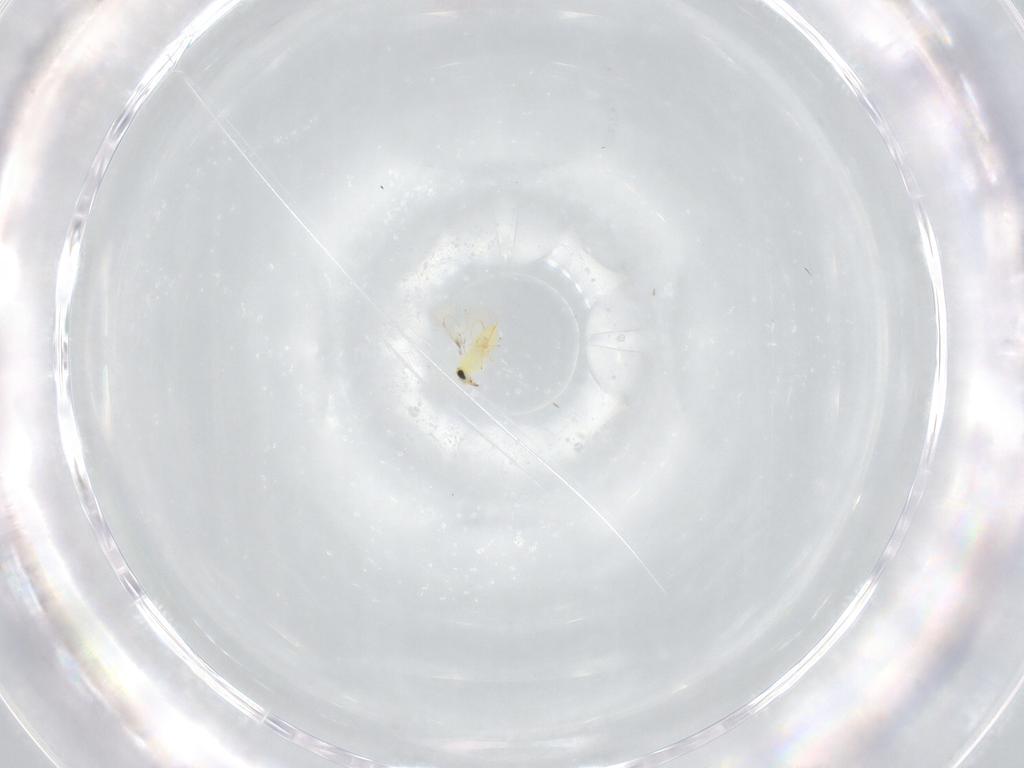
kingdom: Animalia
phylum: Arthropoda
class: Insecta
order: Hymenoptera
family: Trichogrammatidae
